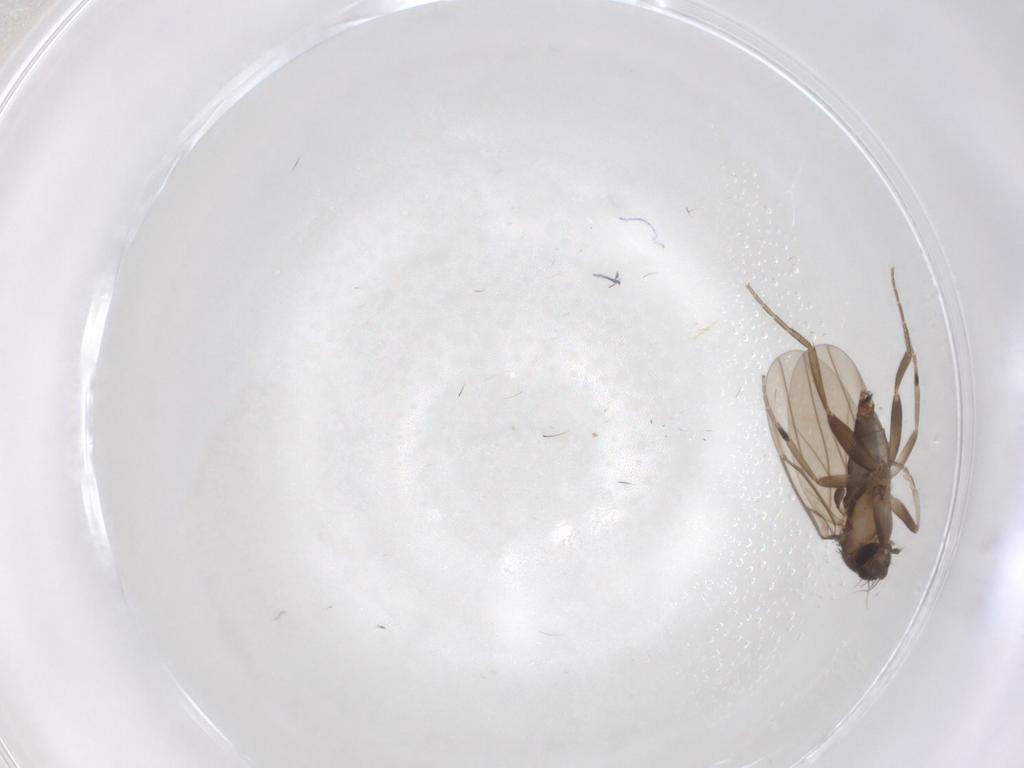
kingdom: Animalia
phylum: Arthropoda
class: Insecta
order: Diptera
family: Sciaridae
